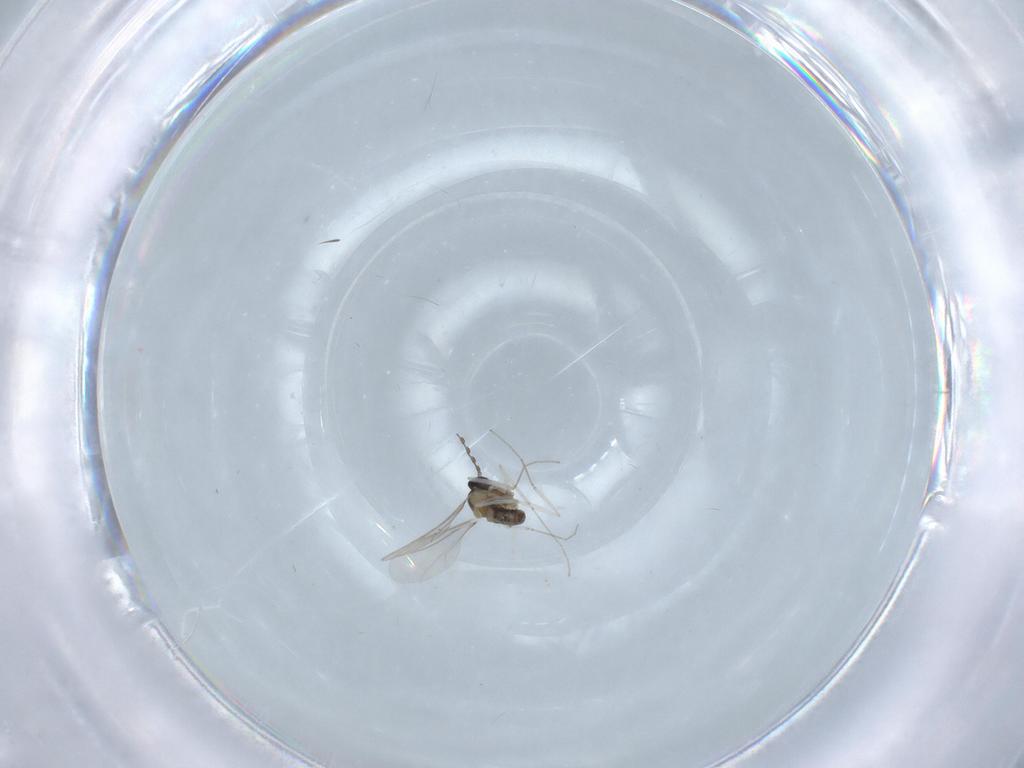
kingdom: Animalia
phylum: Arthropoda
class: Insecta
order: Diptera
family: Cecidomyiidae
